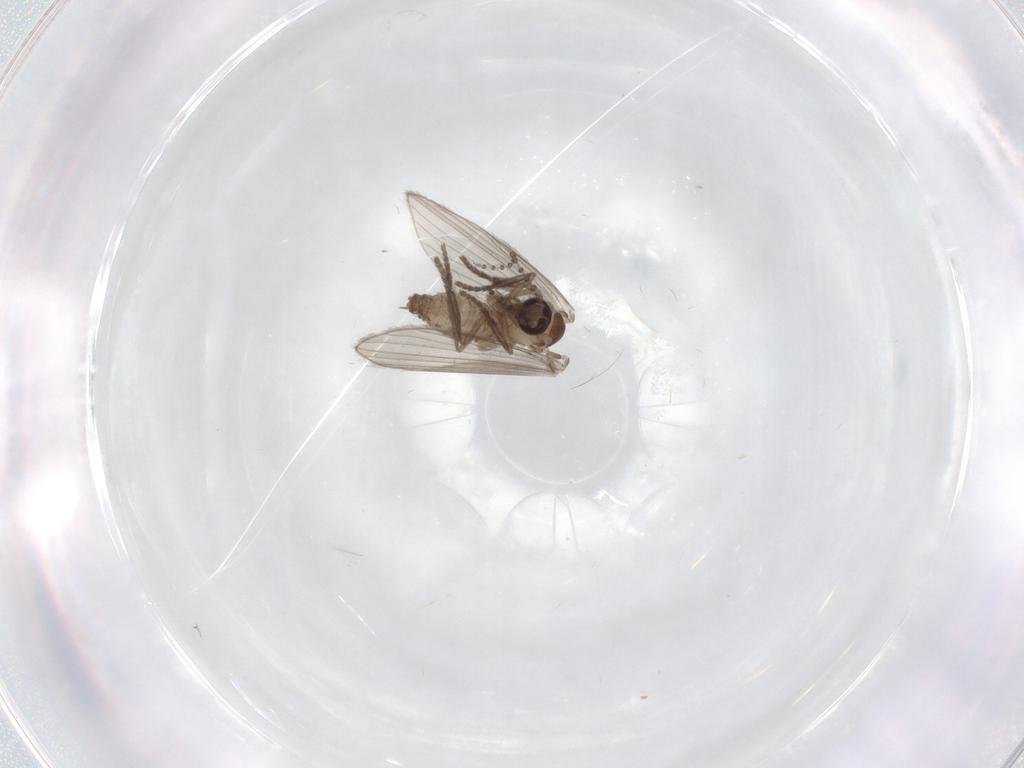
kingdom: Animalia
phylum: Arthropoda
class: Insecta
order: Diptera
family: Psychodidae
